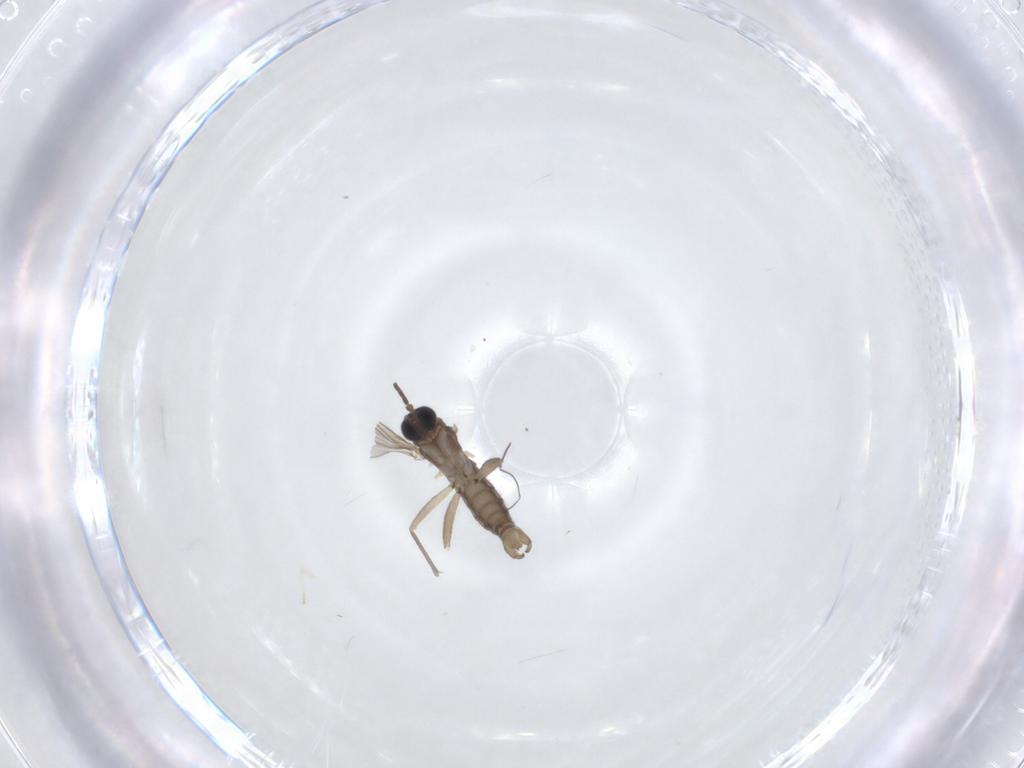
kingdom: Animalia
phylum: Arthropoda
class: Insecta
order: Diptera
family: Sciaridae
